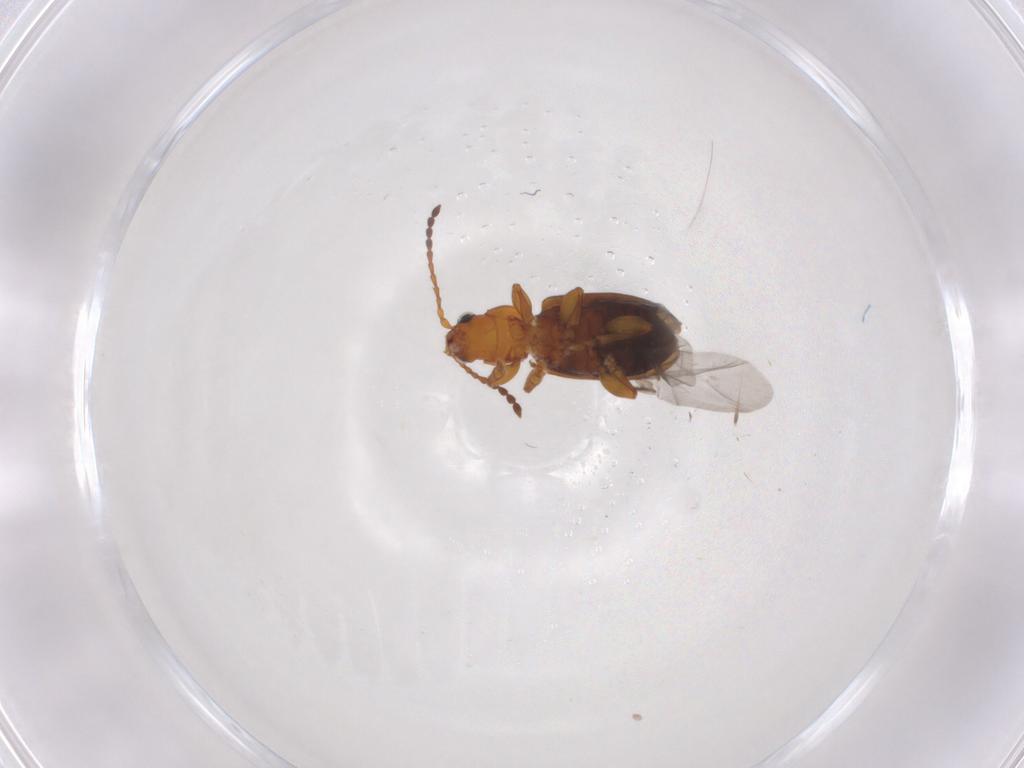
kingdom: Animalia
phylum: Arthropoda
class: Insecta
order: Coleoptera
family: Chrysomelidae
